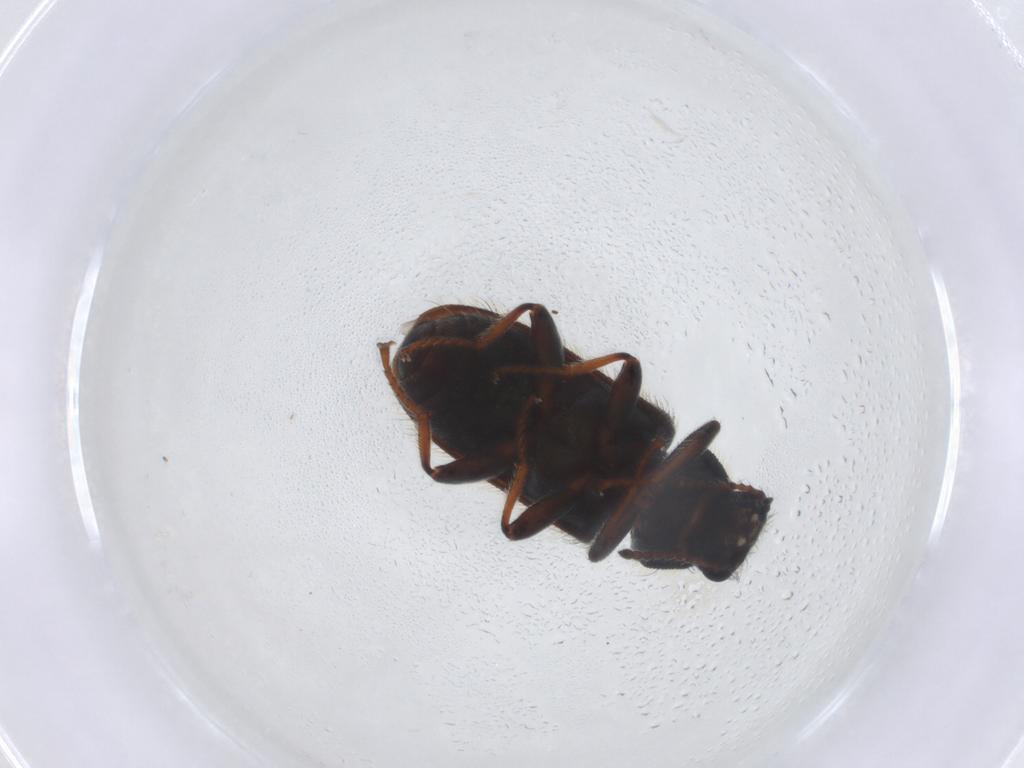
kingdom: Animalia
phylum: Arthropoda
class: Insecta
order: Coleoptera
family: Melyridae
